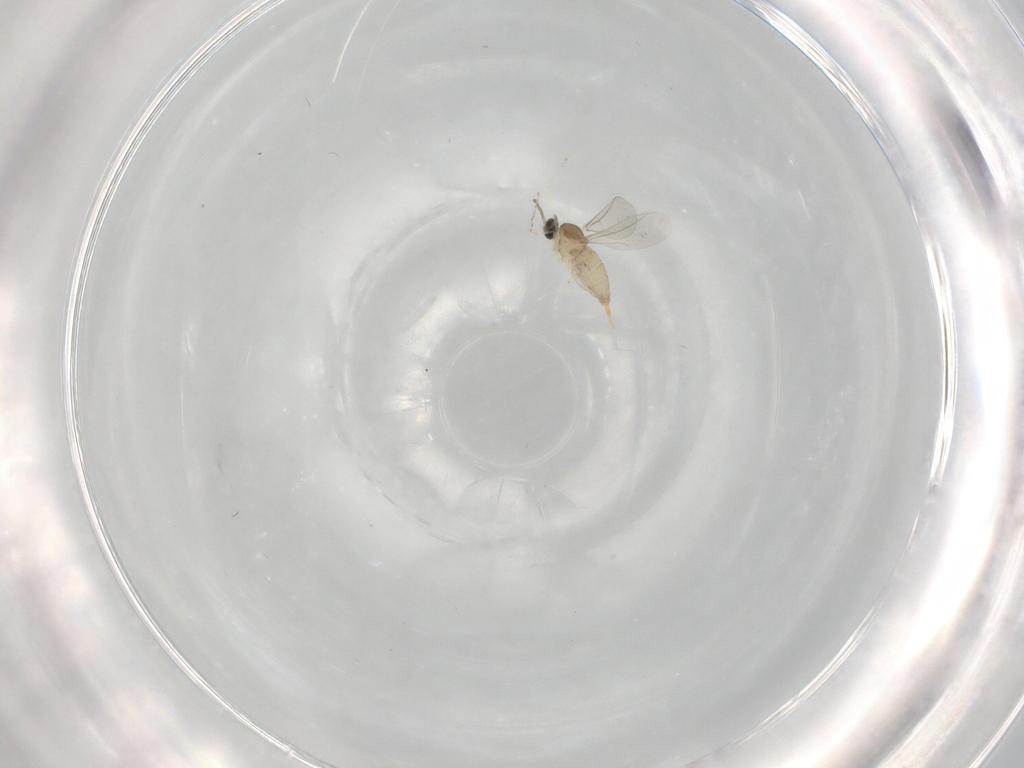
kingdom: Animalia
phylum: Arthropoda
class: Insecta
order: Diptera
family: Cecidomyiidae
